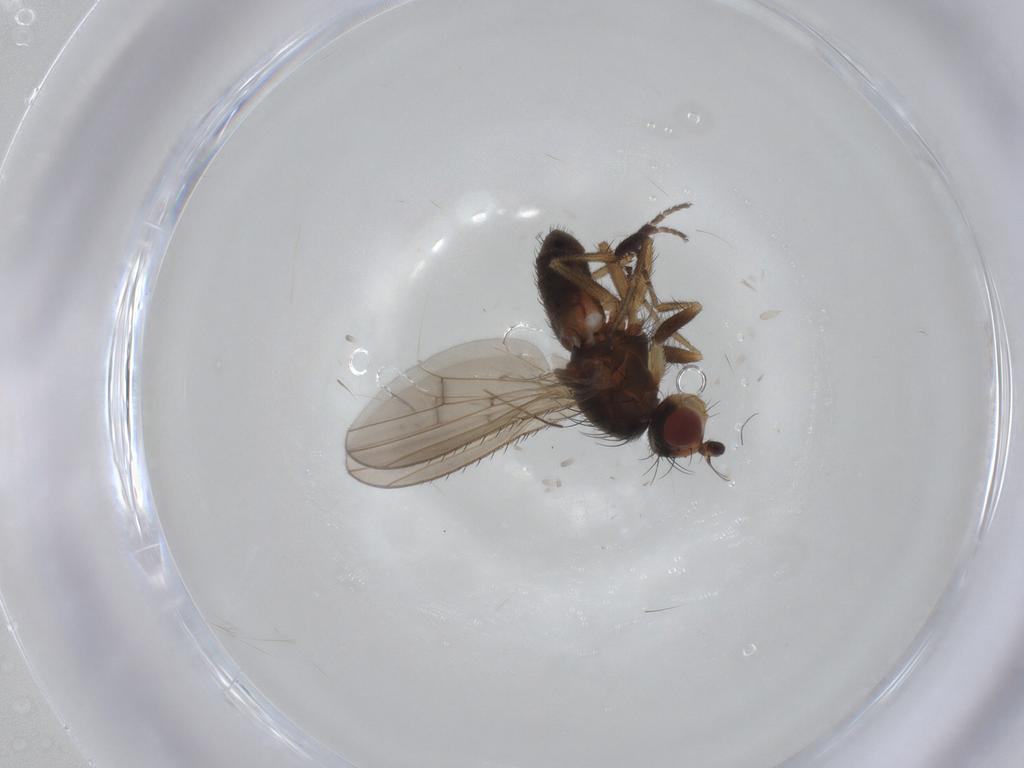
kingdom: Animalia
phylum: Arthropoda
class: Insecta
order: Diptera
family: Heleomyzidae
